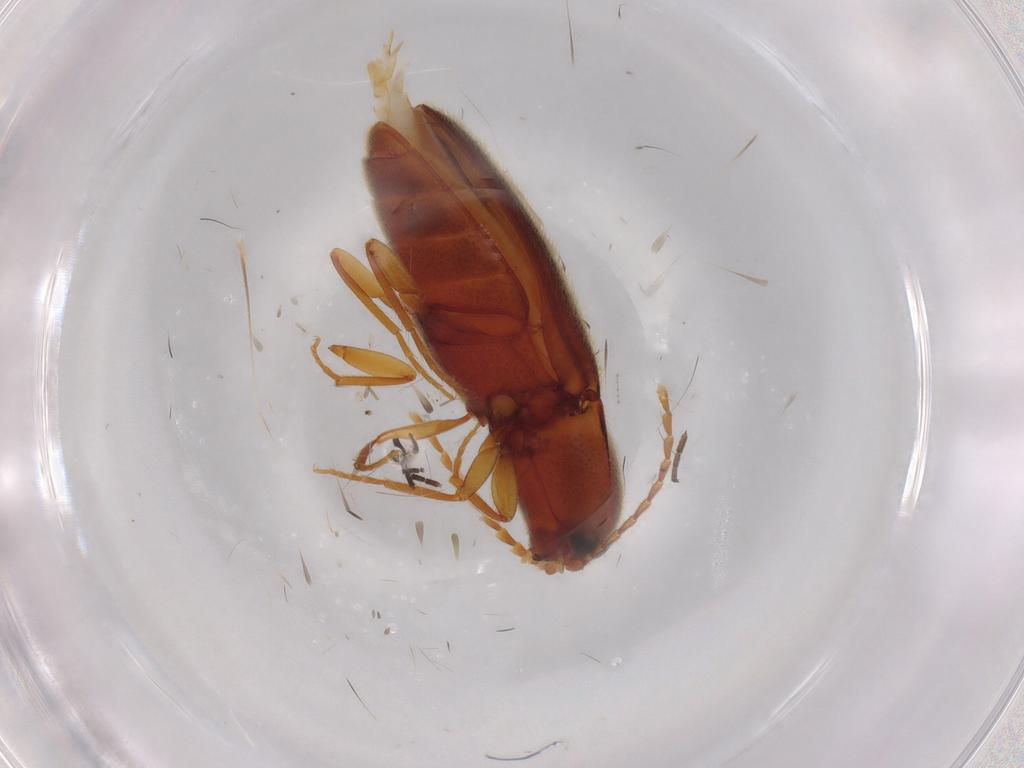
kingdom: Animalia
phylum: Arthropoda
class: Insecta
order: Coleoptera
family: Elateridae
